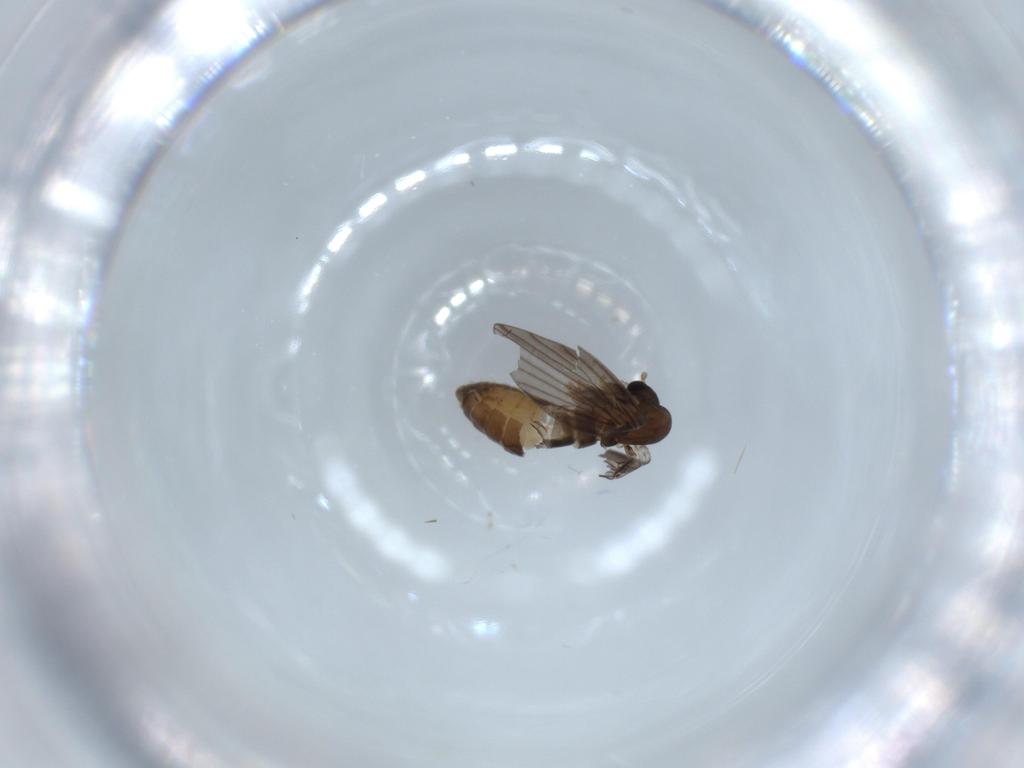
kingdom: Animalia
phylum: Arthropoda
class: Insecta
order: Diptera
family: Psychodidae
